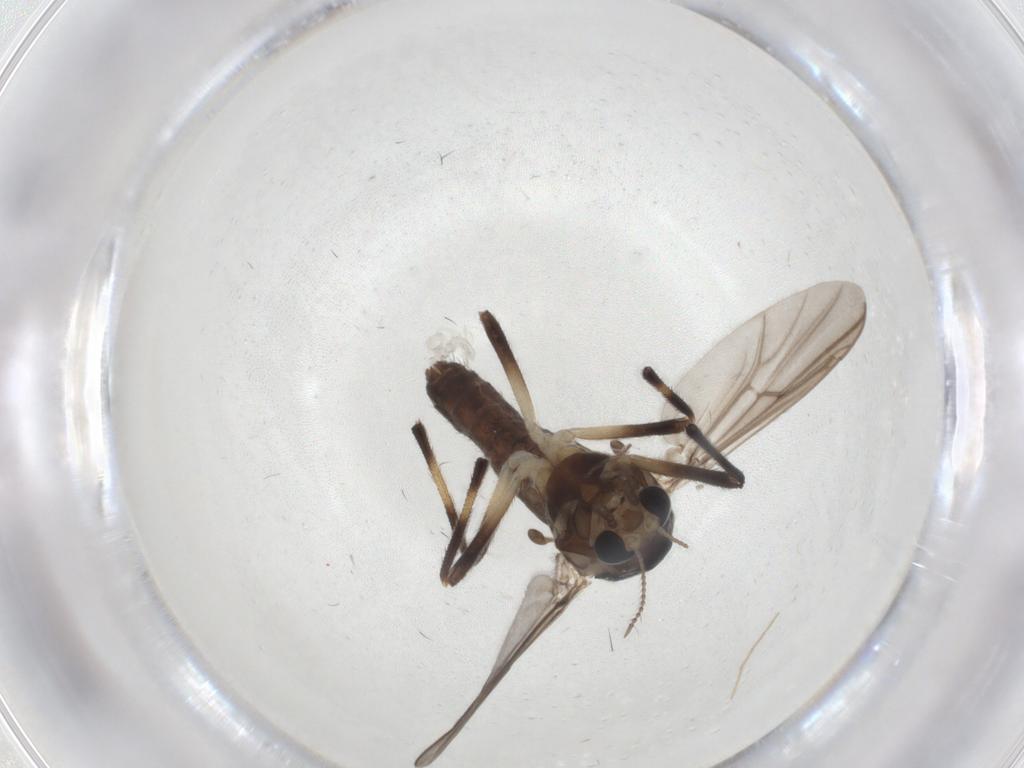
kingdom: Animalia
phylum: Arthropoda
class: Insecta
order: Diptera
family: Chironomidae
